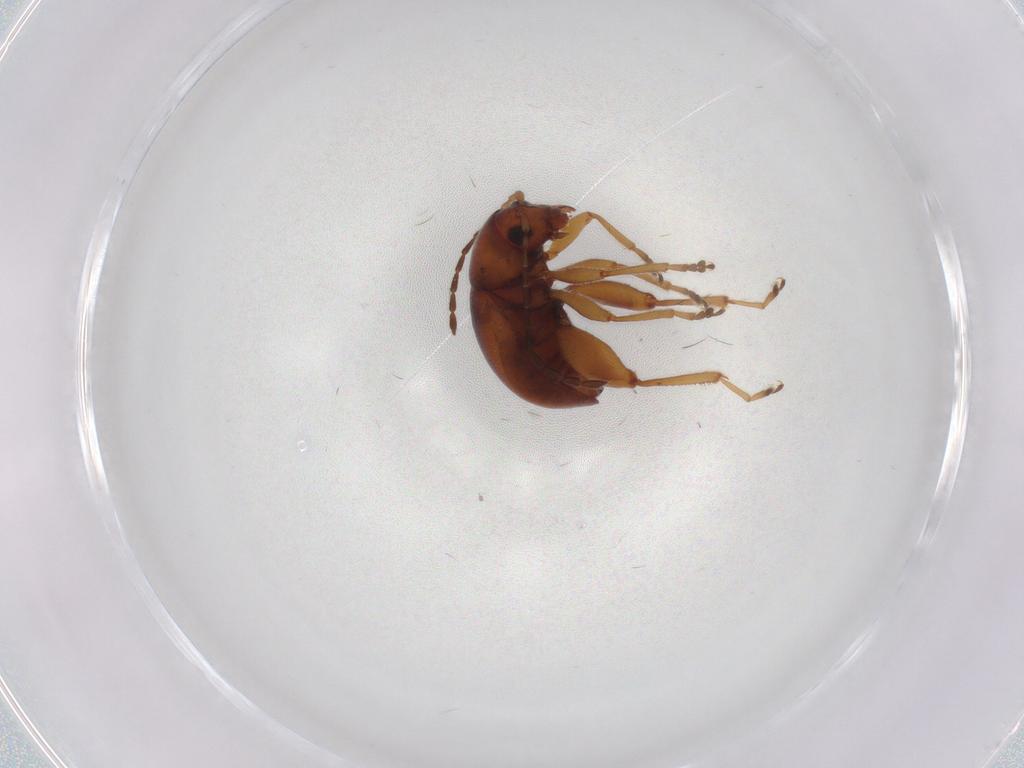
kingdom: Animalia
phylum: Arthropoda
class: Insecta
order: Coleoptera
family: Chrysomelidae
